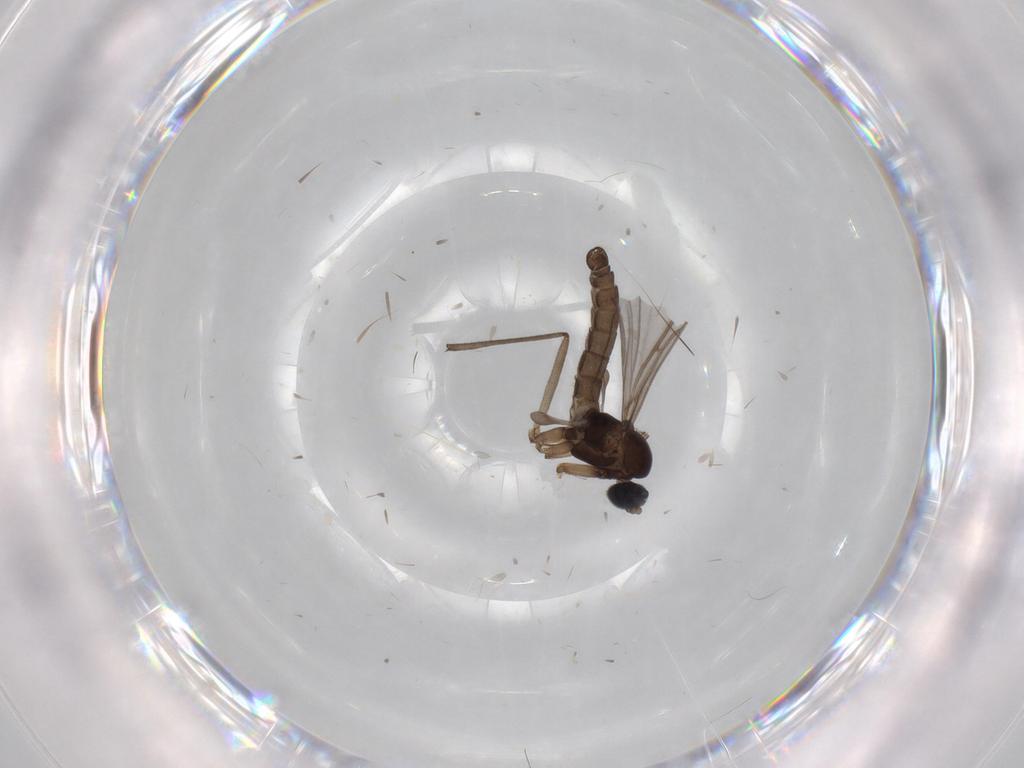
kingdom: Animalia
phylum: Arthropoda
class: Insecta
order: Diptera
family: Sciaridae
